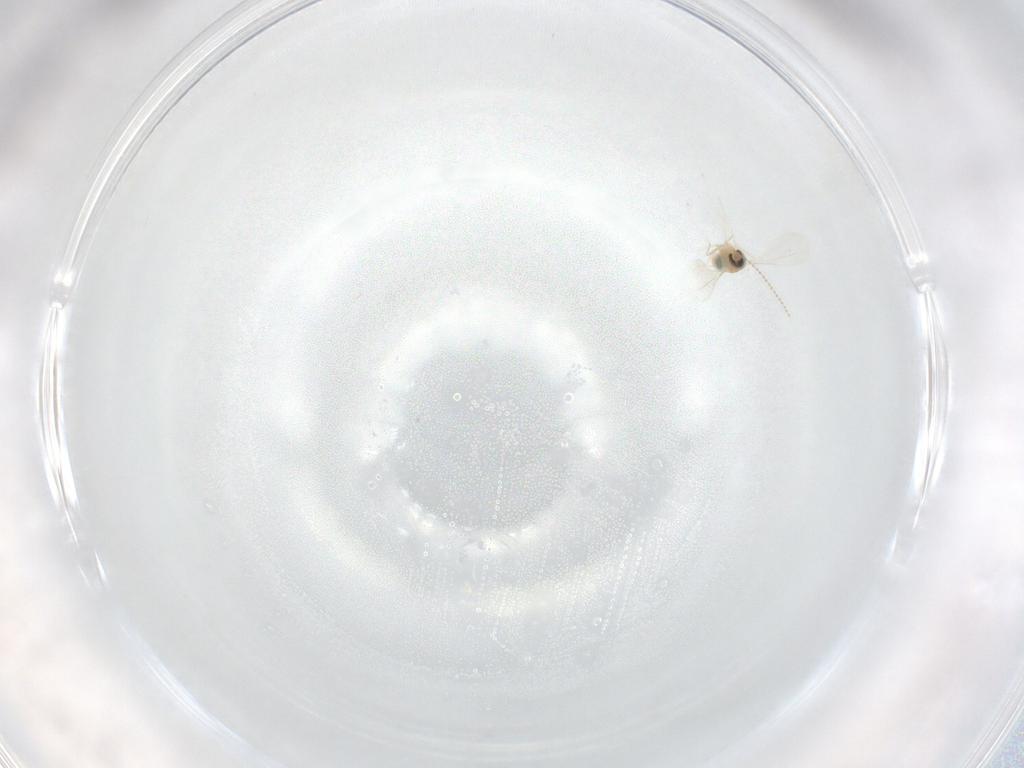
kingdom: Animalia
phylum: Arthropoda
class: Insecta
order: Diptera
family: Cecidomyiidae
